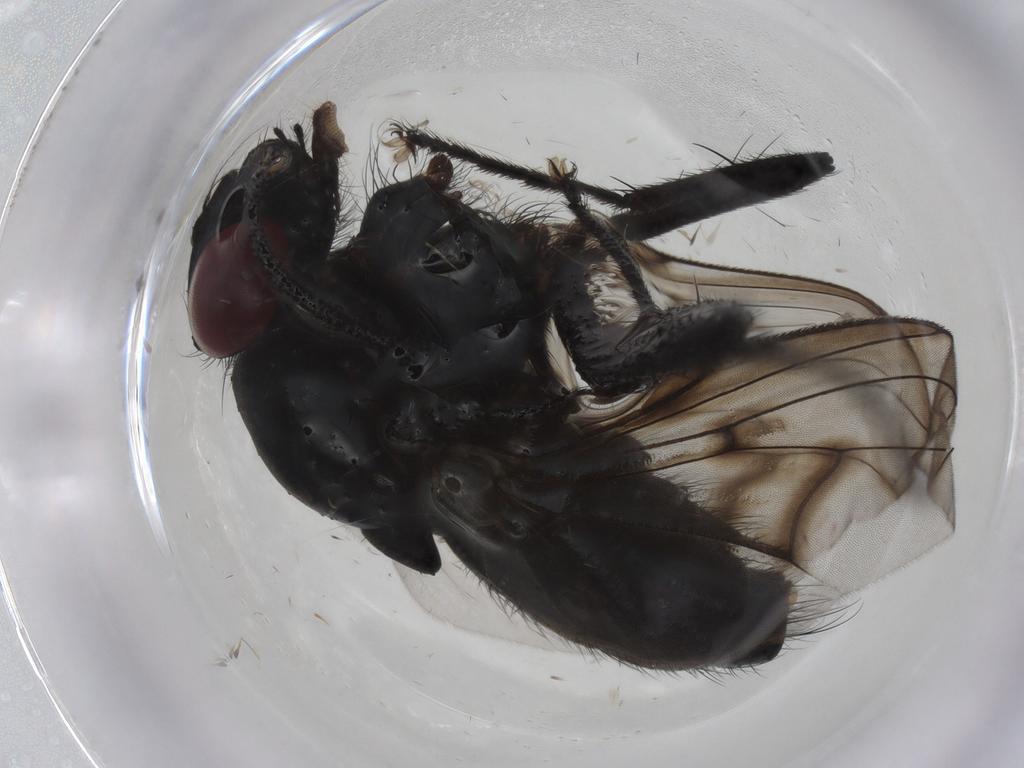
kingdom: Animalia
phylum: Arthropoda
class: Insecta
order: Diptera
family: Muscidae
